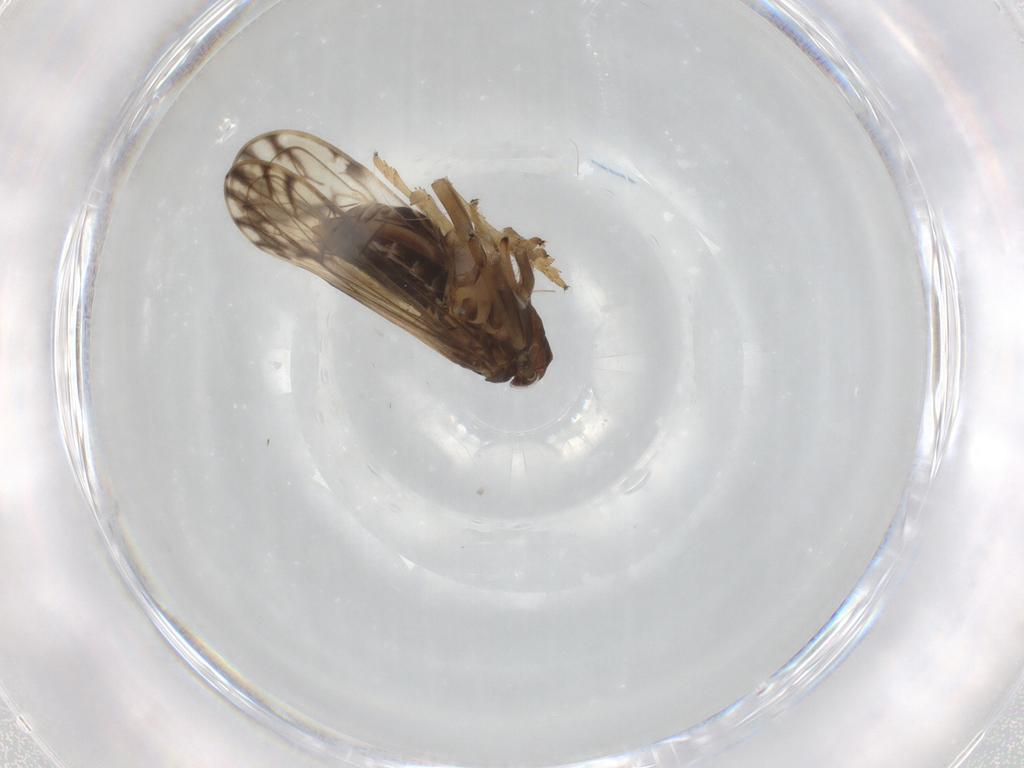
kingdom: Animalia
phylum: Arthropoda
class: Insecta
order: Hemiptera
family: Delphacidae
